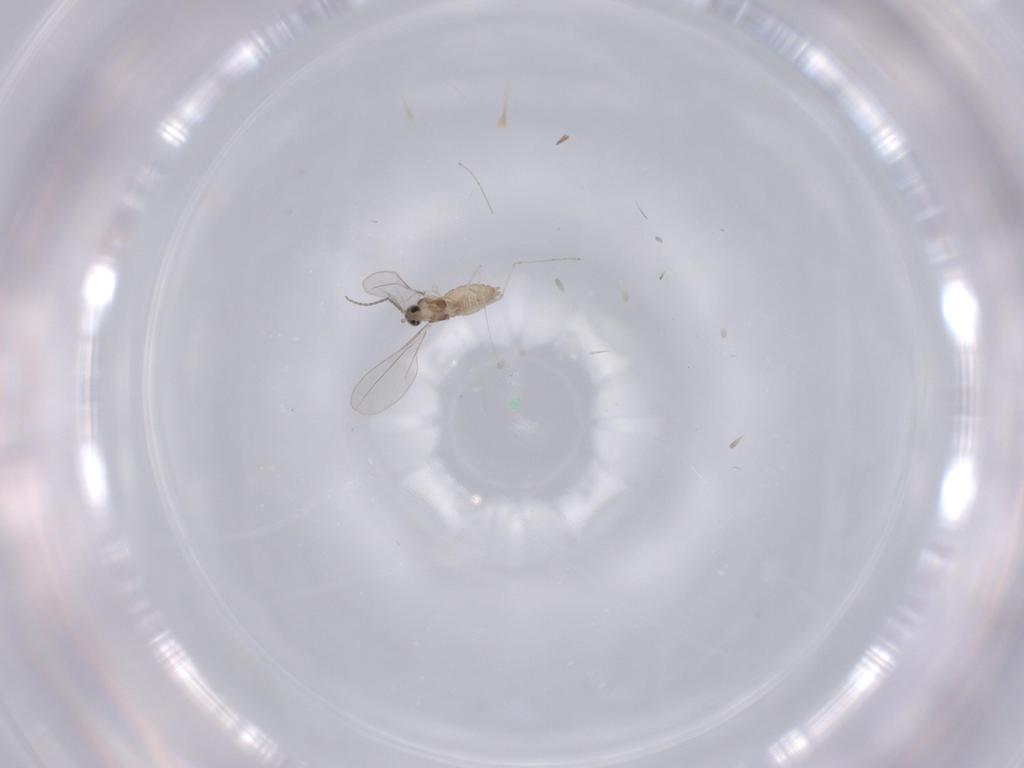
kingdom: Animalia
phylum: Arthropoda
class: Insecta
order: Diptera
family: Cecidomyiidae
